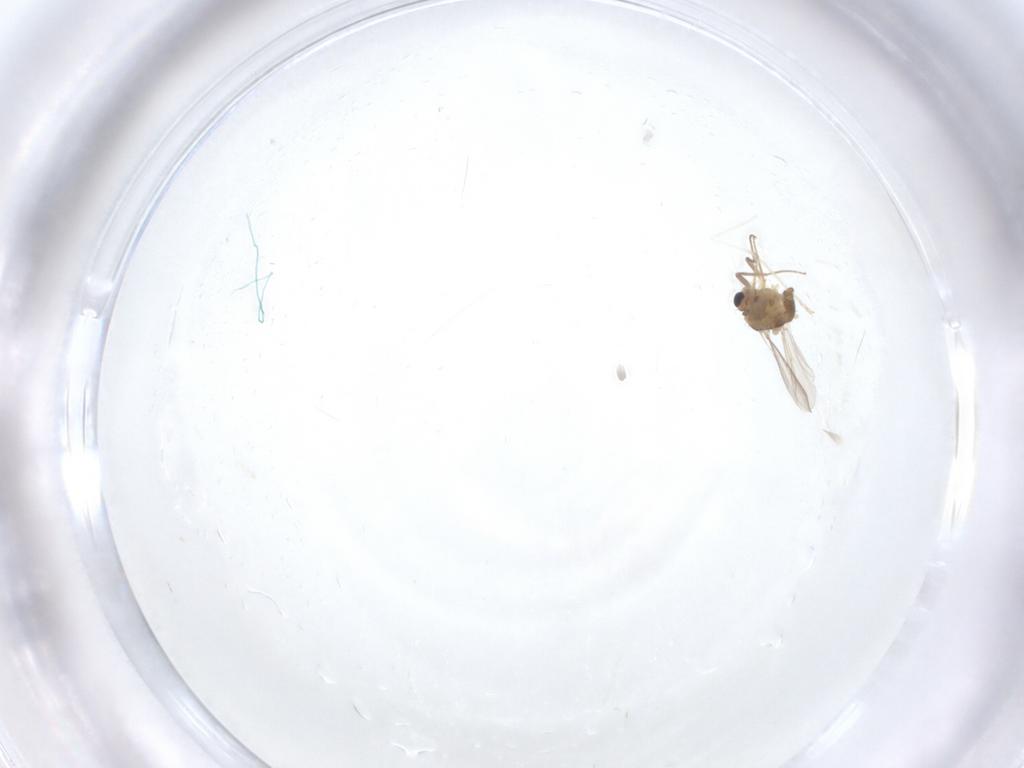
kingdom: Animalia
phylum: Arthropoda
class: Insecta
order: Diptera
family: Chironomidae
